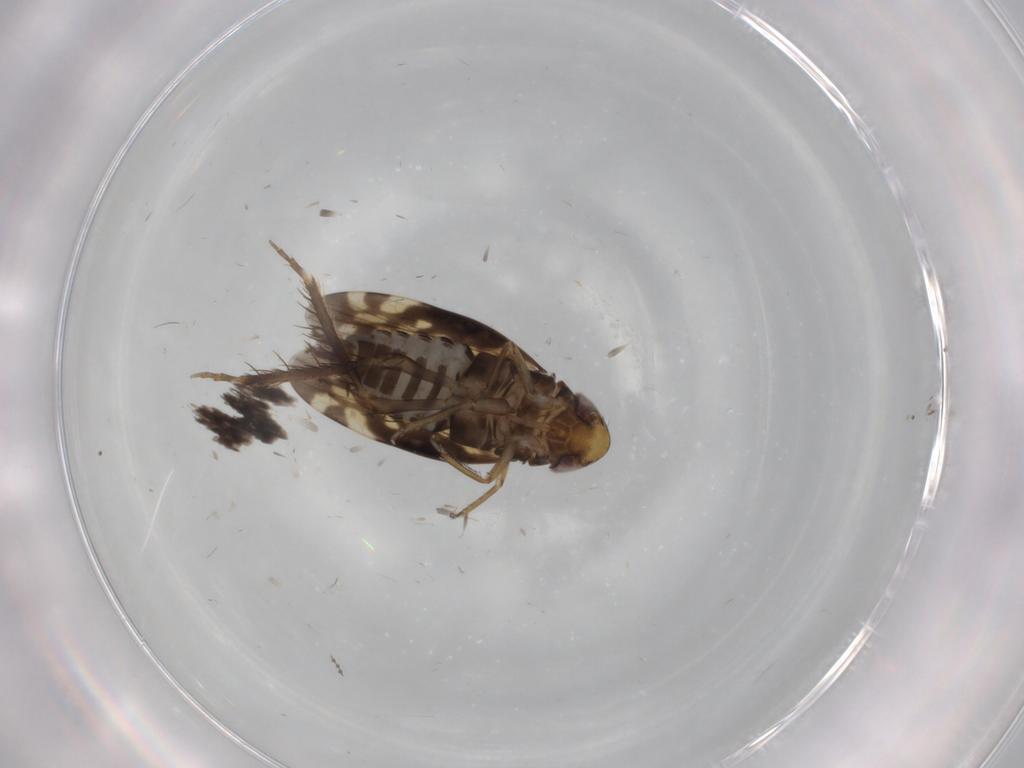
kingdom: Animalia
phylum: Arthropoda
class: Insecta
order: Hemiptera
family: Cicadellidae
